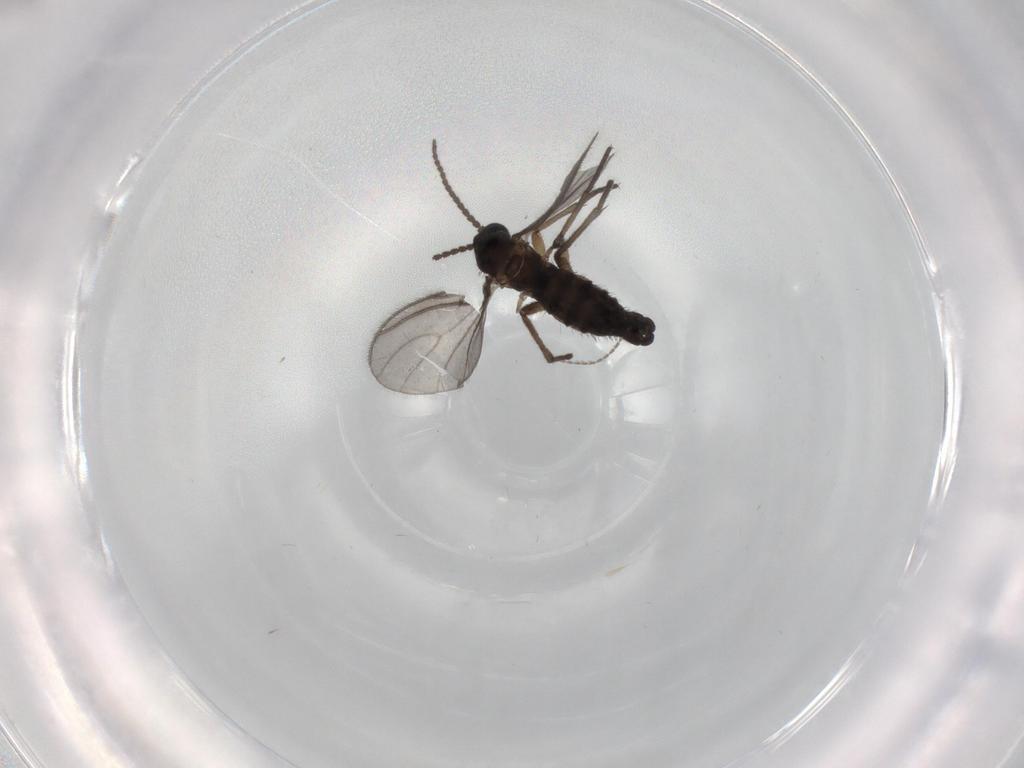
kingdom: Animalia
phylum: Arthropoda
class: Insecta
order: Diptera
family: Sciaridae
